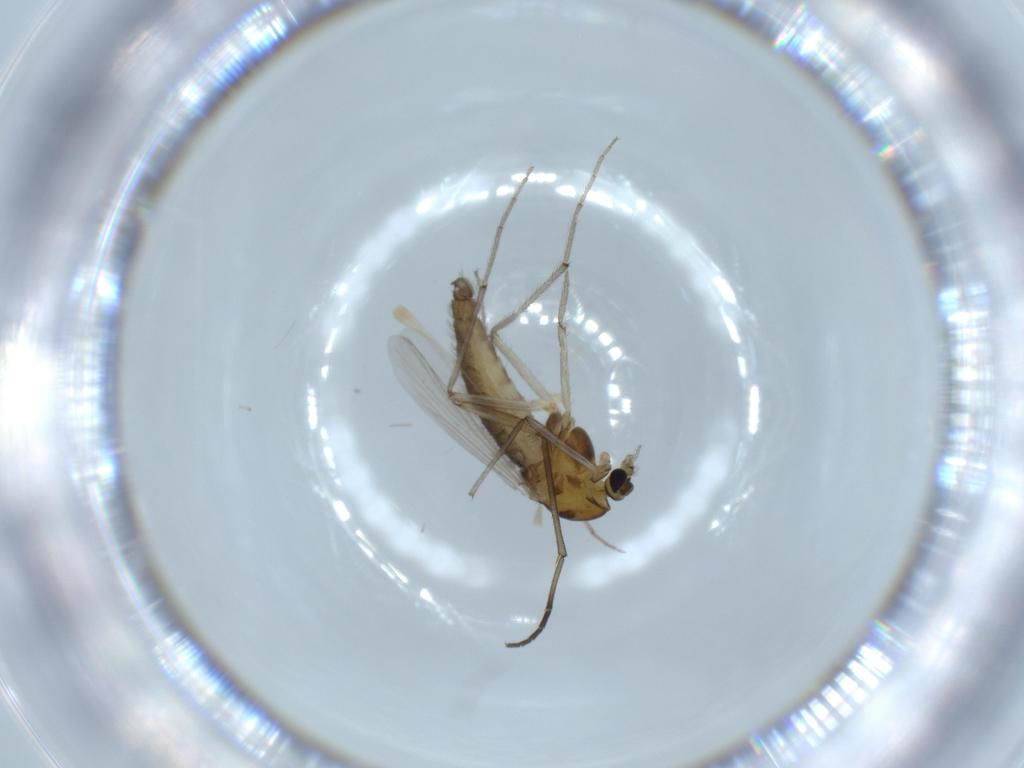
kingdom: Animalia
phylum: Arthropoda
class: Insecta
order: Diptera
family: Chironomidae
